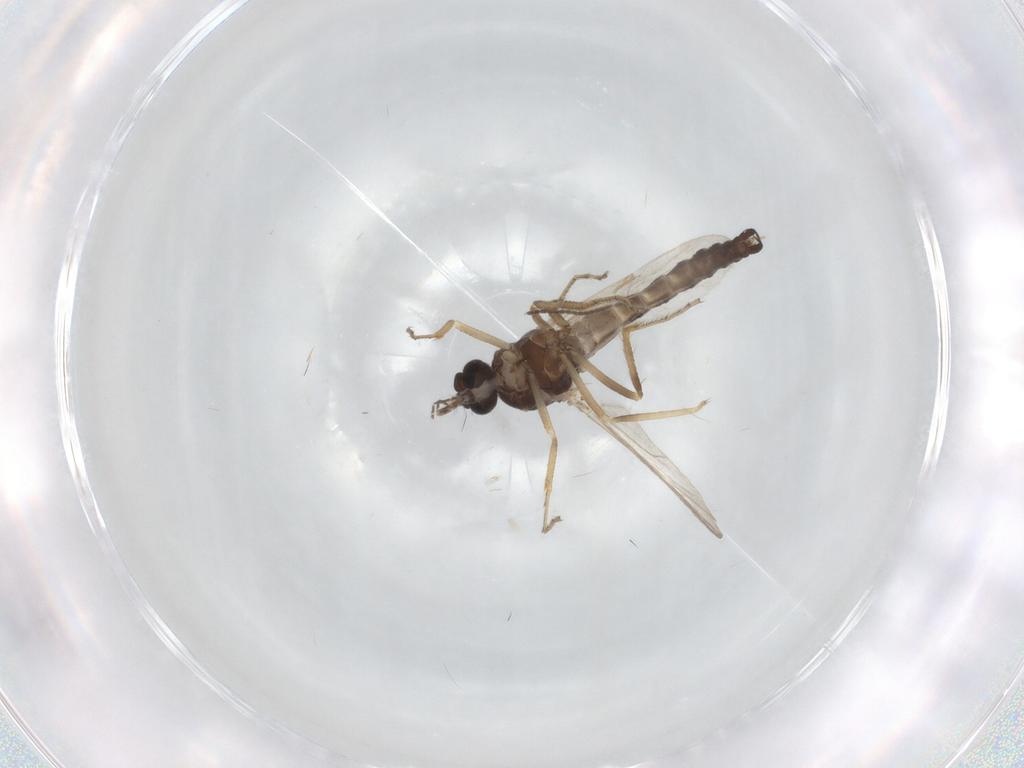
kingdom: Animalia
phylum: Arthropoda
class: Insecta
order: Diptera
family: Ceratopogonidae
